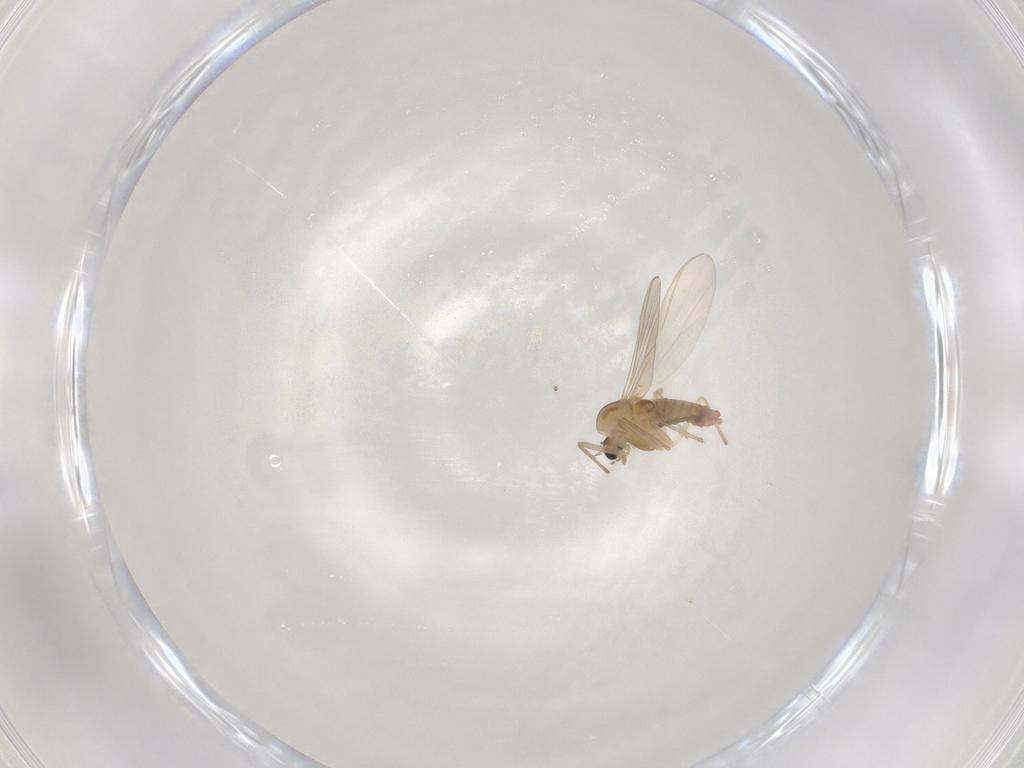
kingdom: Animalia
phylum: Arthropoda
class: Insecta
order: Diptera
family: Chironomidae
